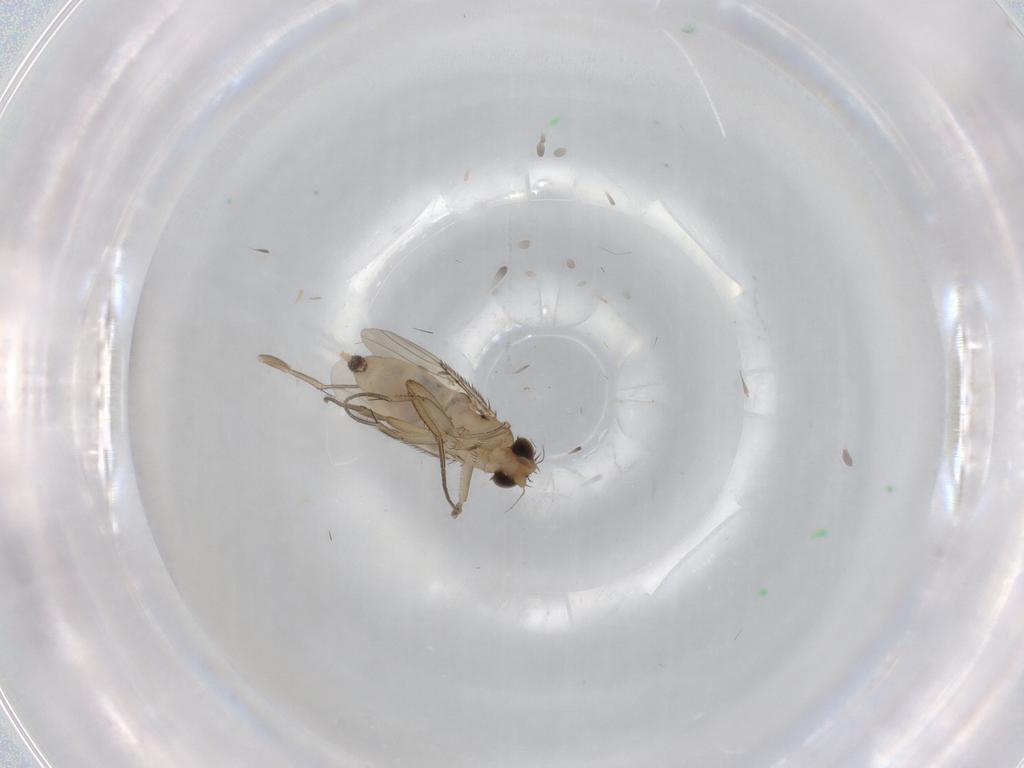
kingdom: Animalia
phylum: Arthropoda
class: Insecta
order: Diptera
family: Phoridae
